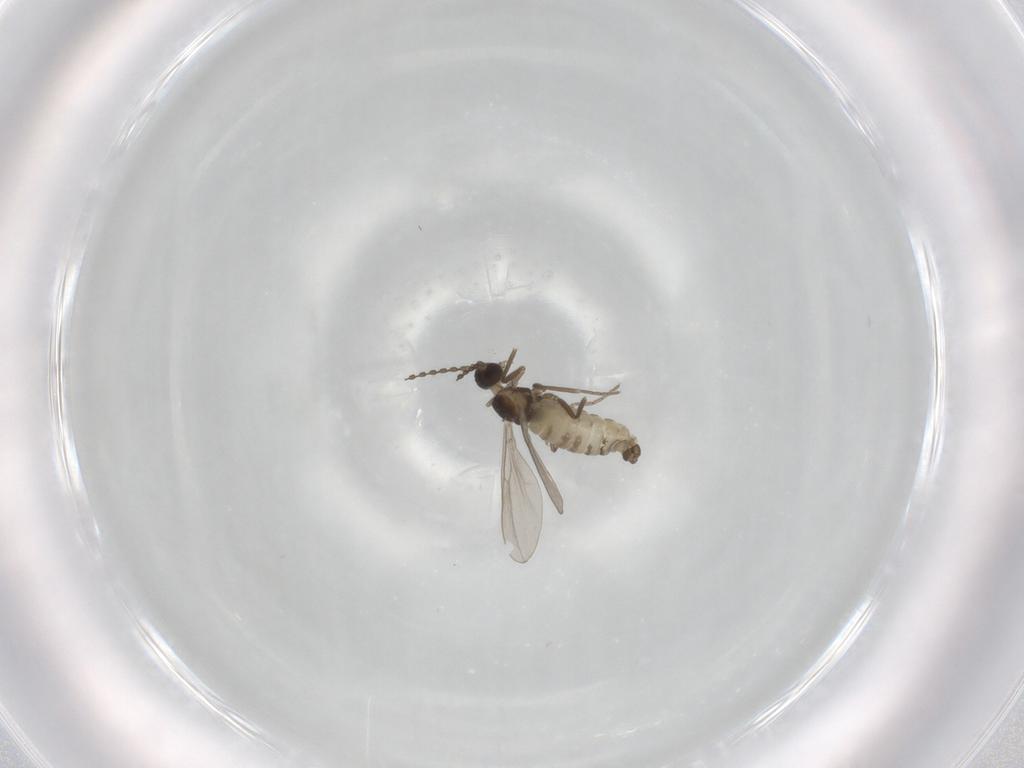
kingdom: Animalia
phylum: Arthropoda
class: Insecta
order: Diptera
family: Cecidomyiidae
